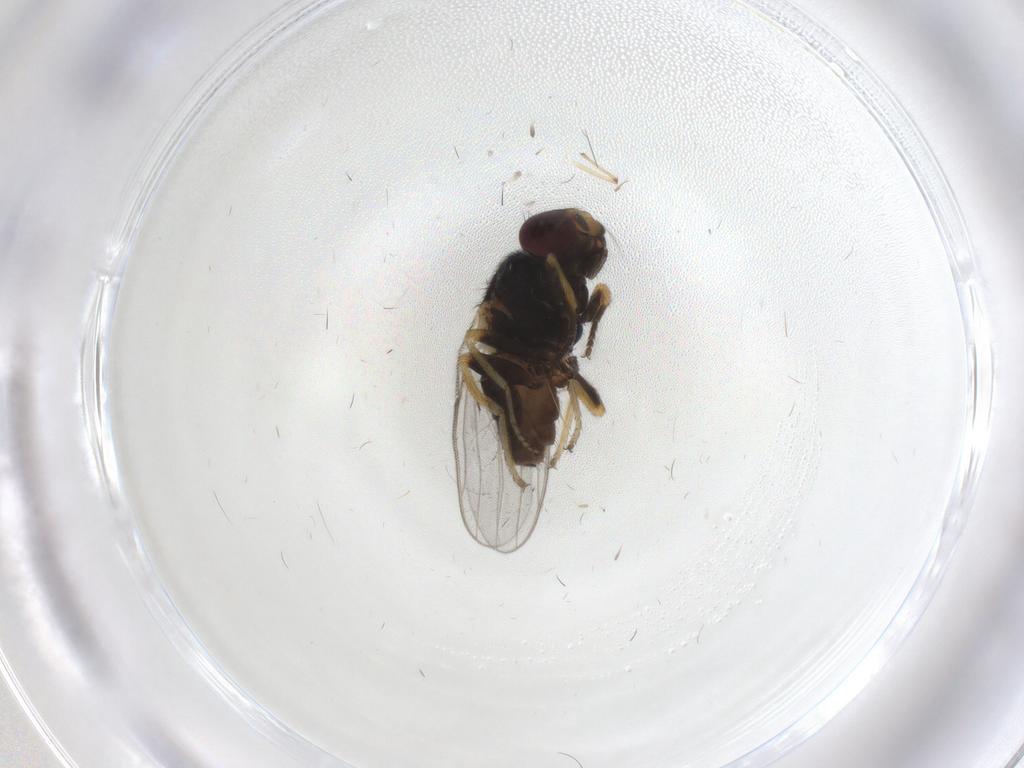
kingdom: Animalia
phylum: Arthropoda
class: Insecta
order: Diptera
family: Chloropidae
